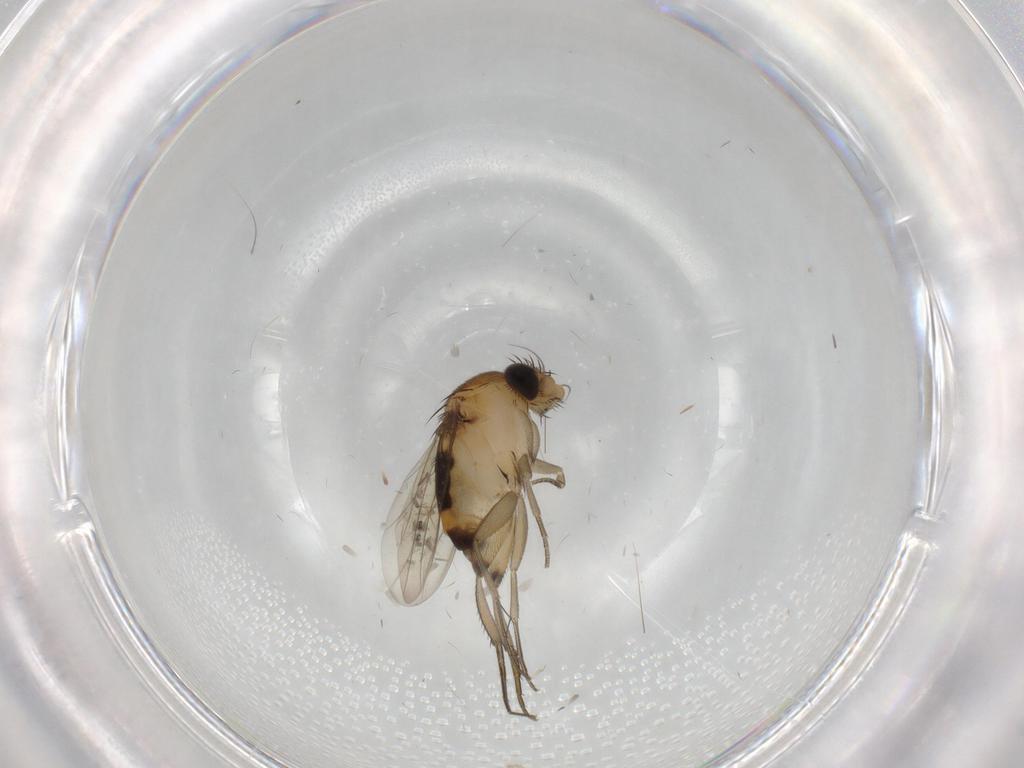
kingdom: Animalia
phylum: Arthropoda
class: Insecta
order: Diptera
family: Phoridae
